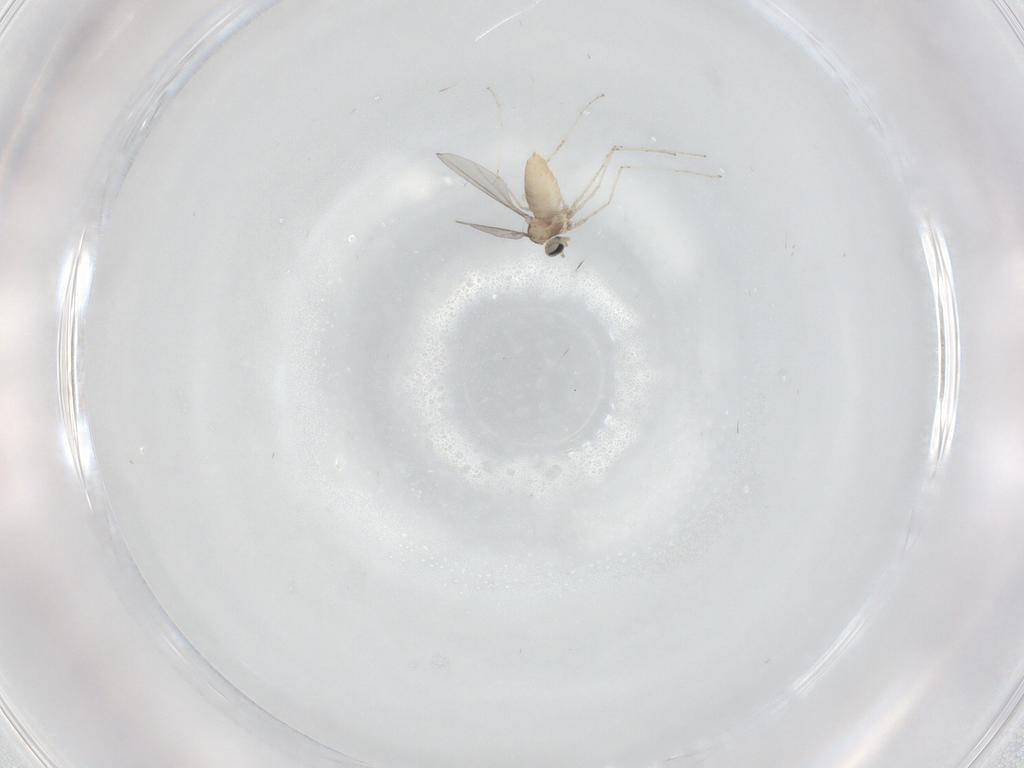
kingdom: Animalia
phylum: Arthropoda
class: Insecta
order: Diptera
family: Cecidomyiidae
